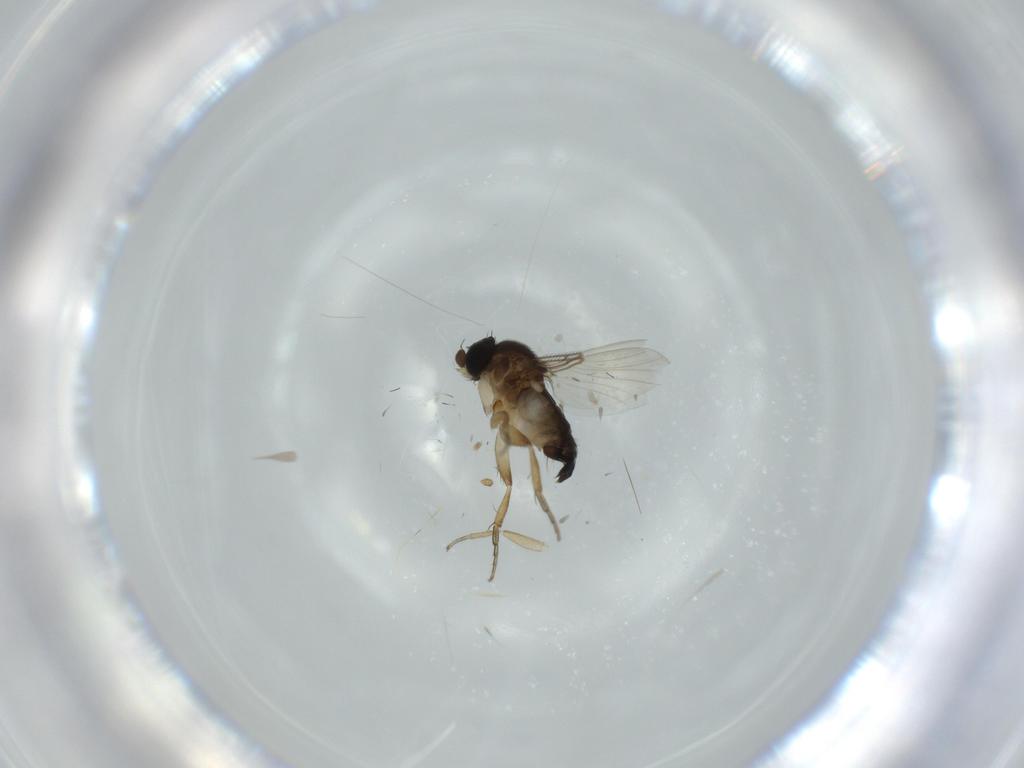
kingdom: Animalia
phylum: Arthropoda
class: Insecta
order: Diptera
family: Phoridae
